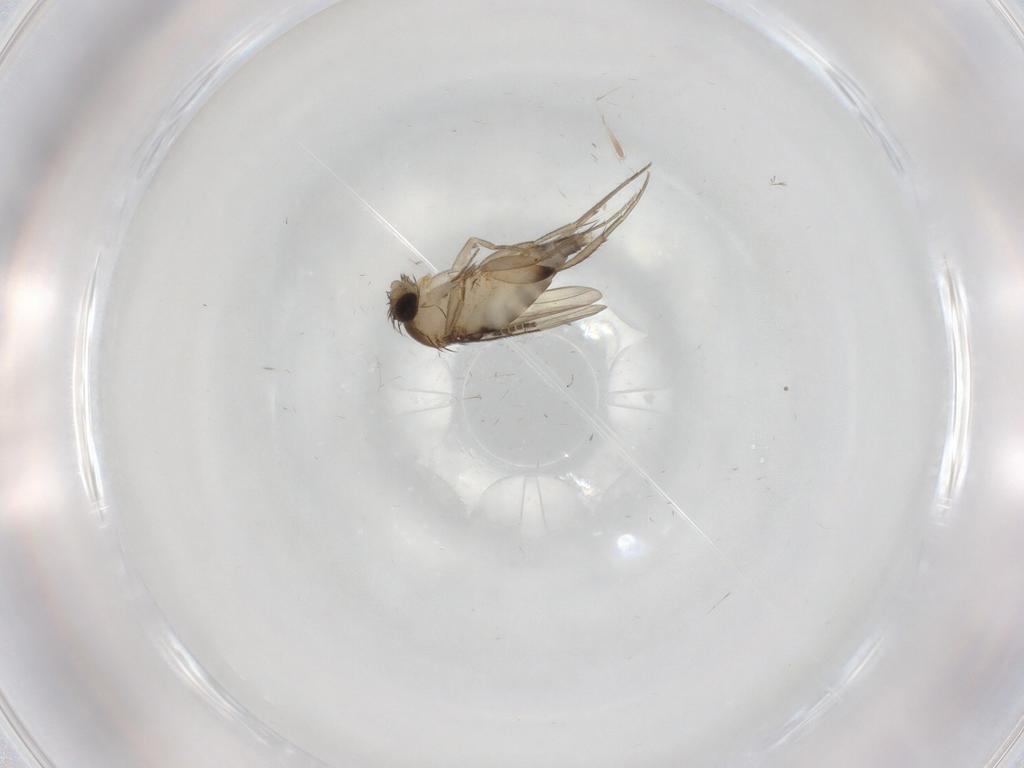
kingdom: Animalia
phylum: Arthropoda
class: Insecta
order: Diptera
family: Phoridae
